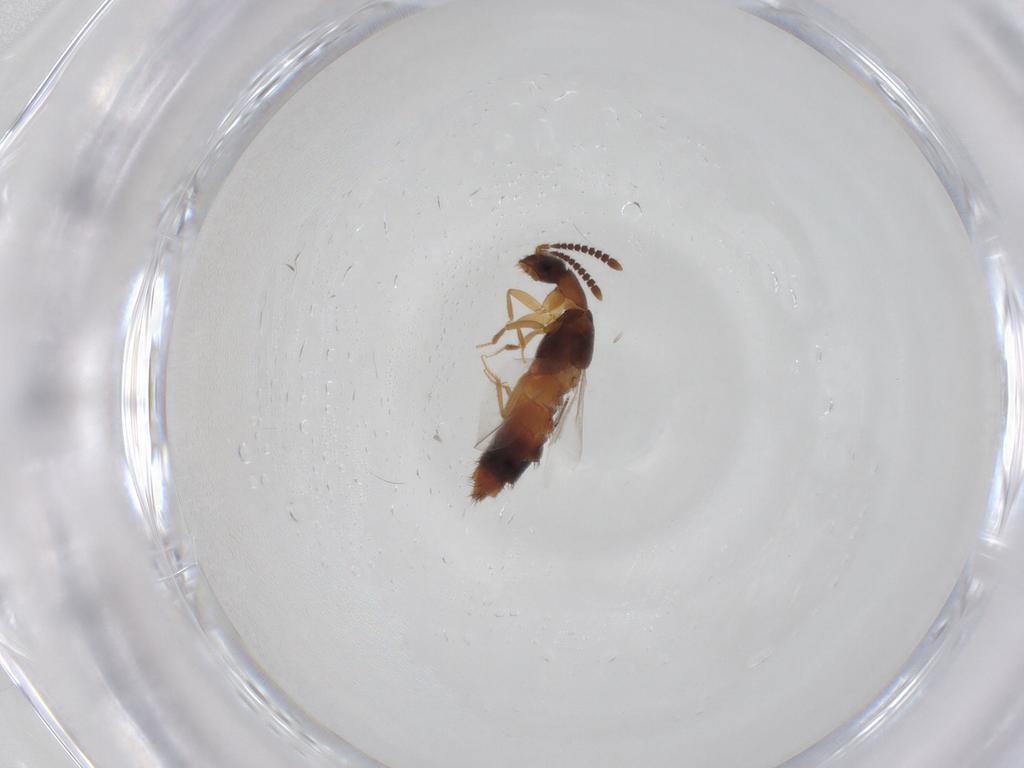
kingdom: Animalia
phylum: Arthropoda
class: Insecta
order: Coleoptera
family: Staphylinidae
